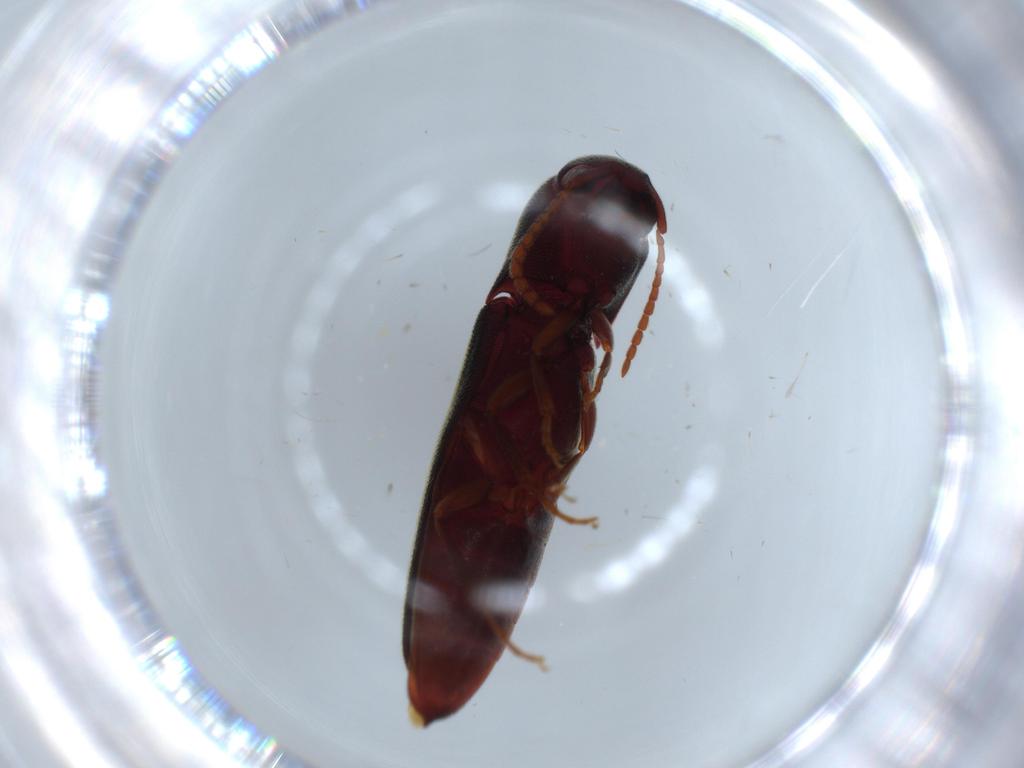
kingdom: Animalia
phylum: Arthropoda
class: Insecta
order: Coleoptera
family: Eucnemidae
